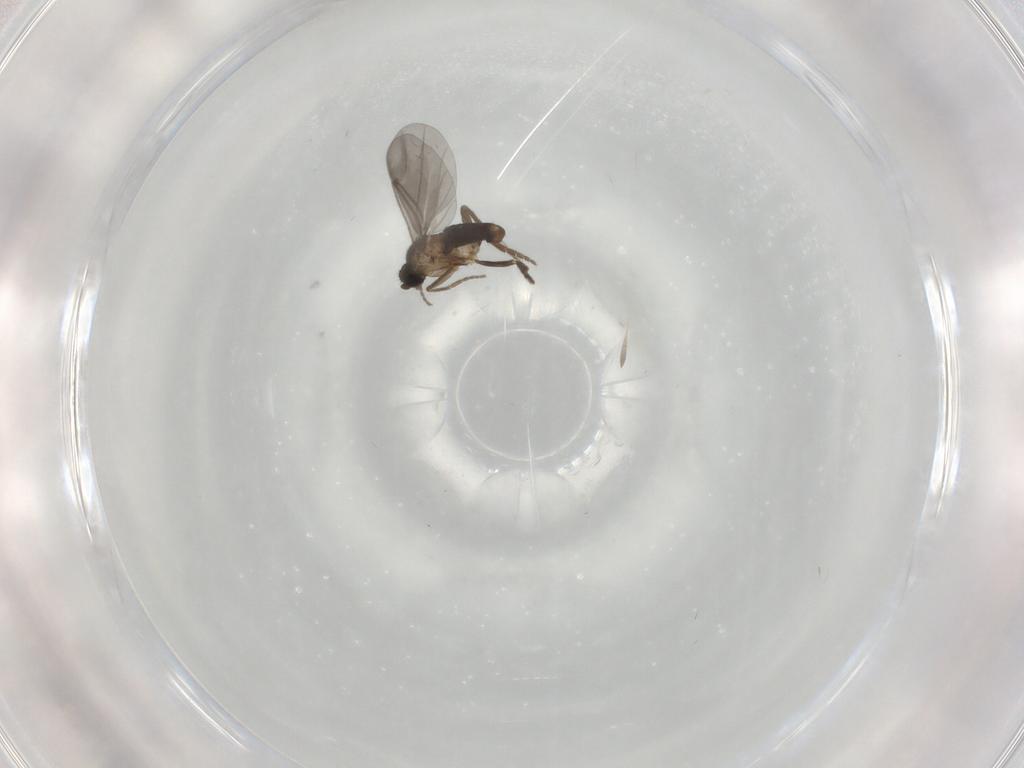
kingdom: Animalia
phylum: Arthropoda
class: Insecta
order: Diptera
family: Phoridae
